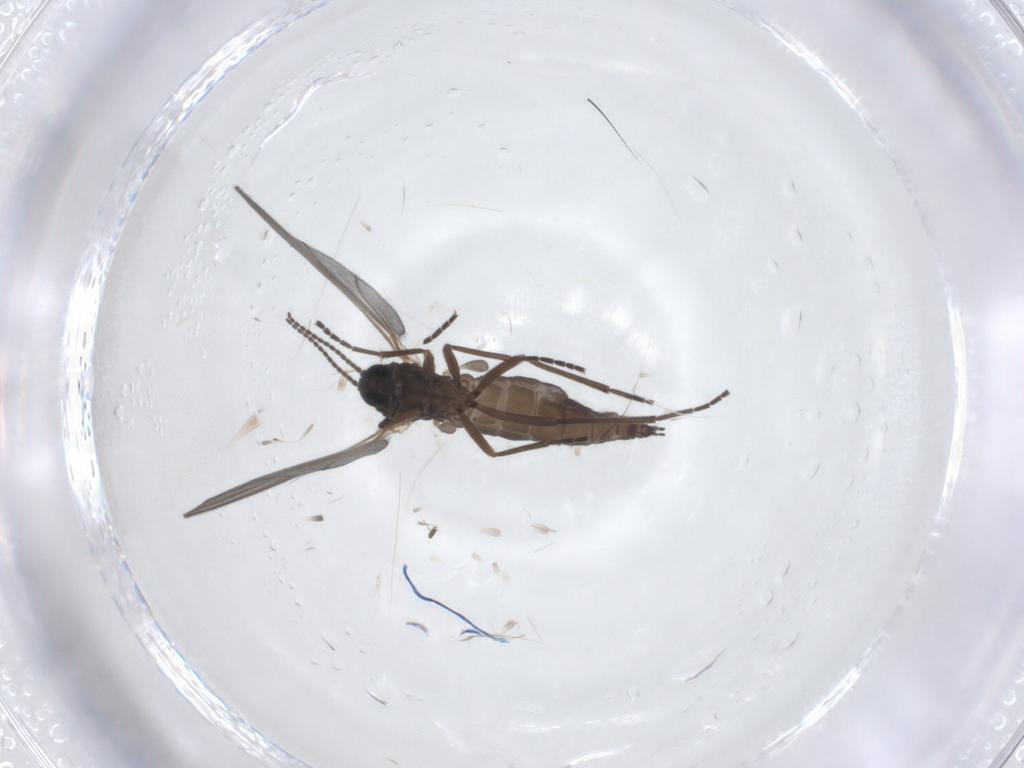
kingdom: Animalia
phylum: Arthropoda
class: Insecta
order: Diptera
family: Sciaridae
